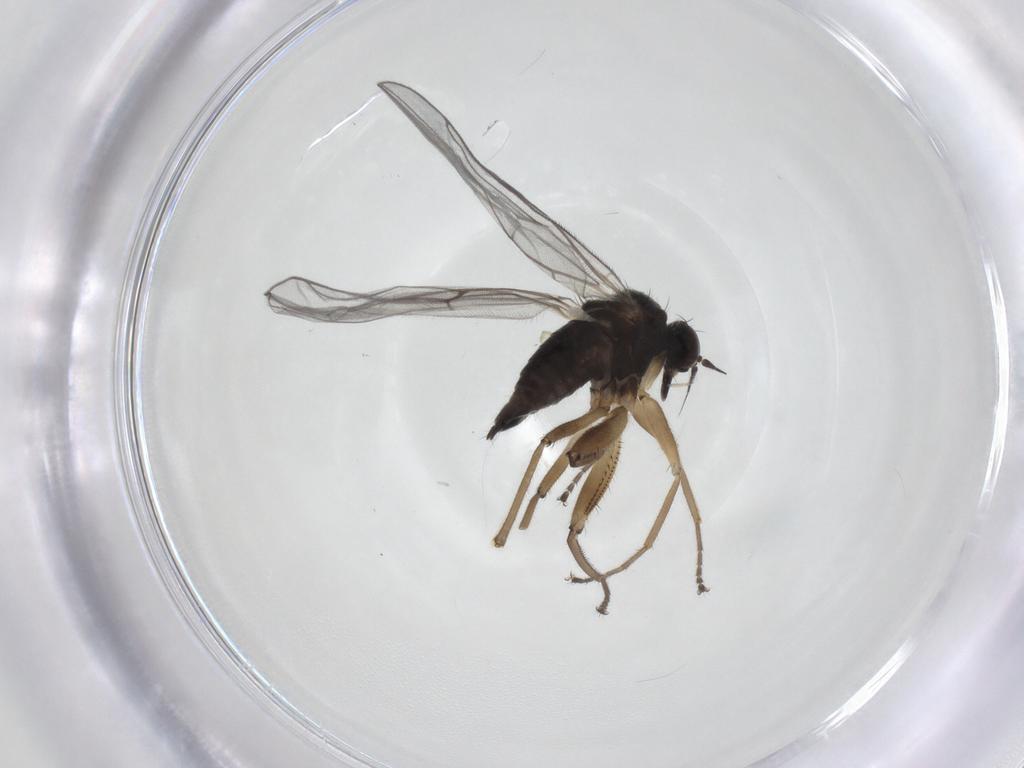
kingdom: Animalia
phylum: Arthropoda
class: Insecta
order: Diptera
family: Hybotidae
